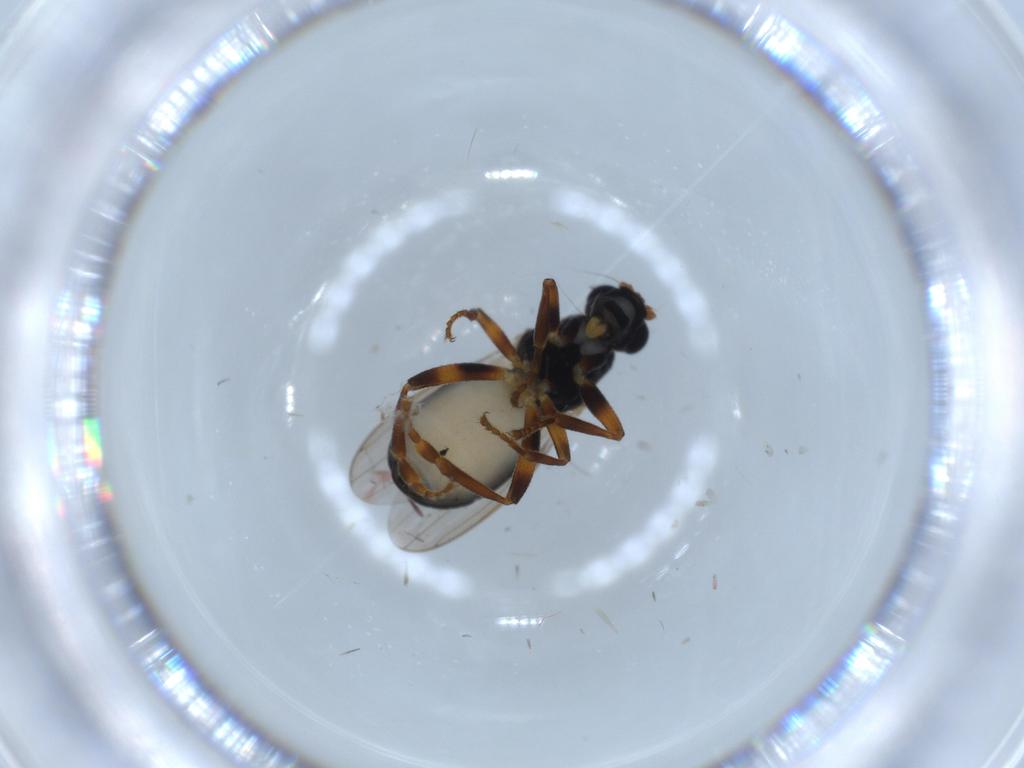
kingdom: Animalia
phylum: Arthropoda
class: Insecta
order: Diptera
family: Sphaeroceridae
